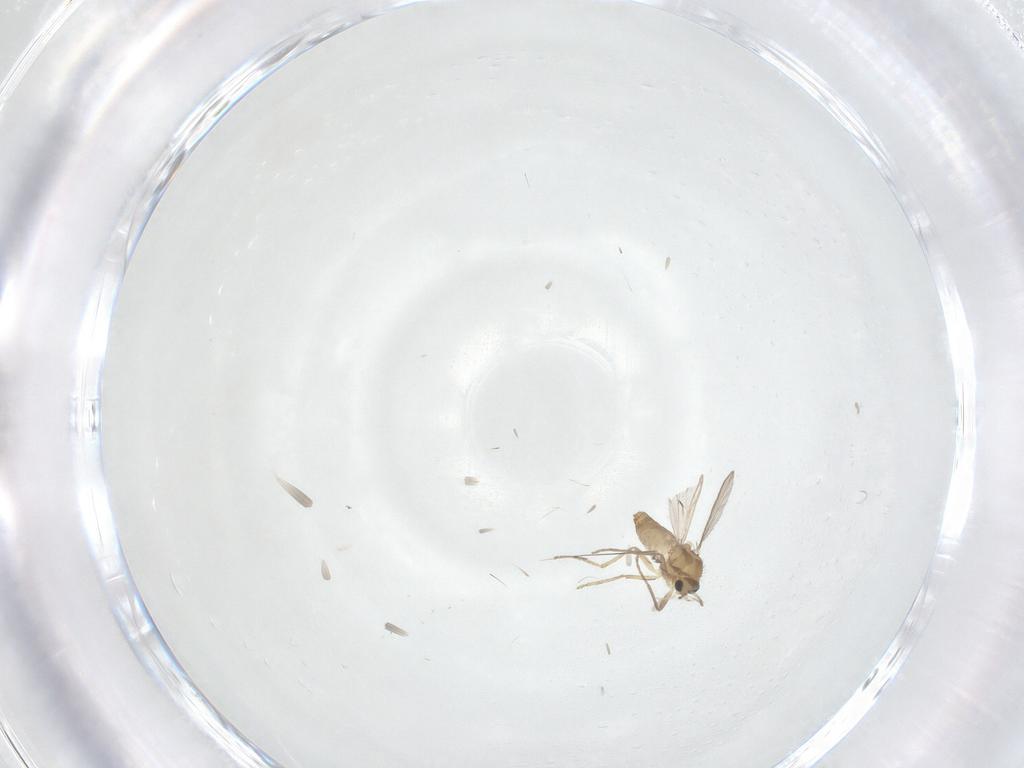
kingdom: Animalia
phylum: Arthropoda
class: Insecta
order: Diptera
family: Chironomidae
